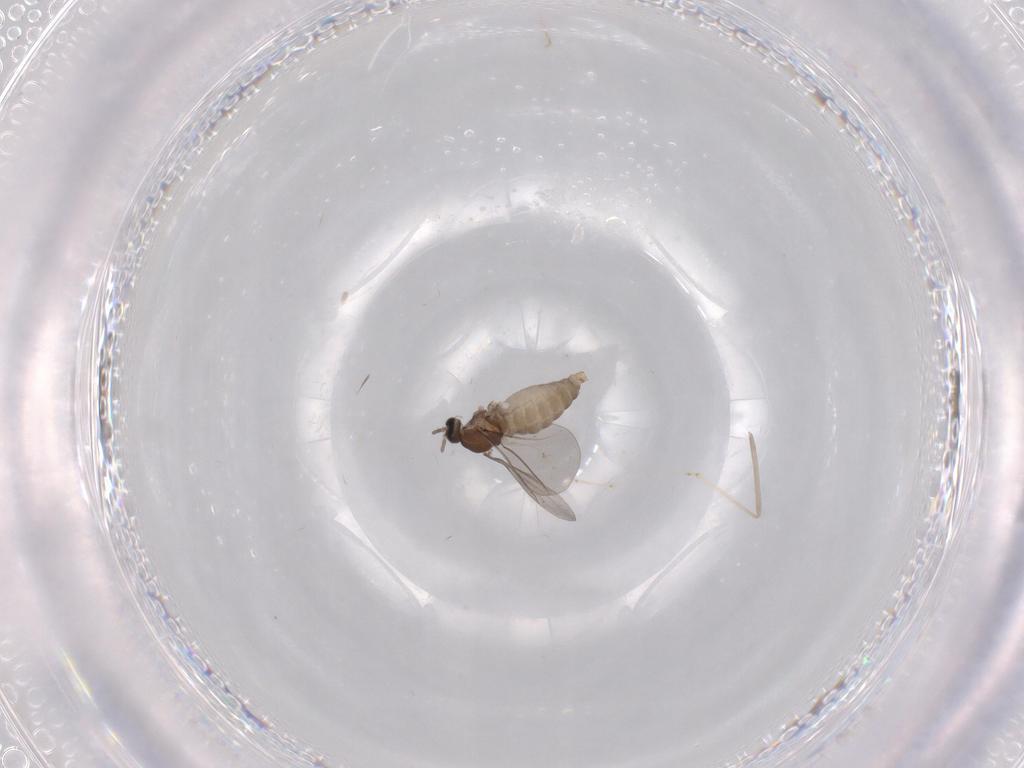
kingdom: Animalia
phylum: Arthropoda
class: Insecta
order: Diptera
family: Cecidomyiidae
